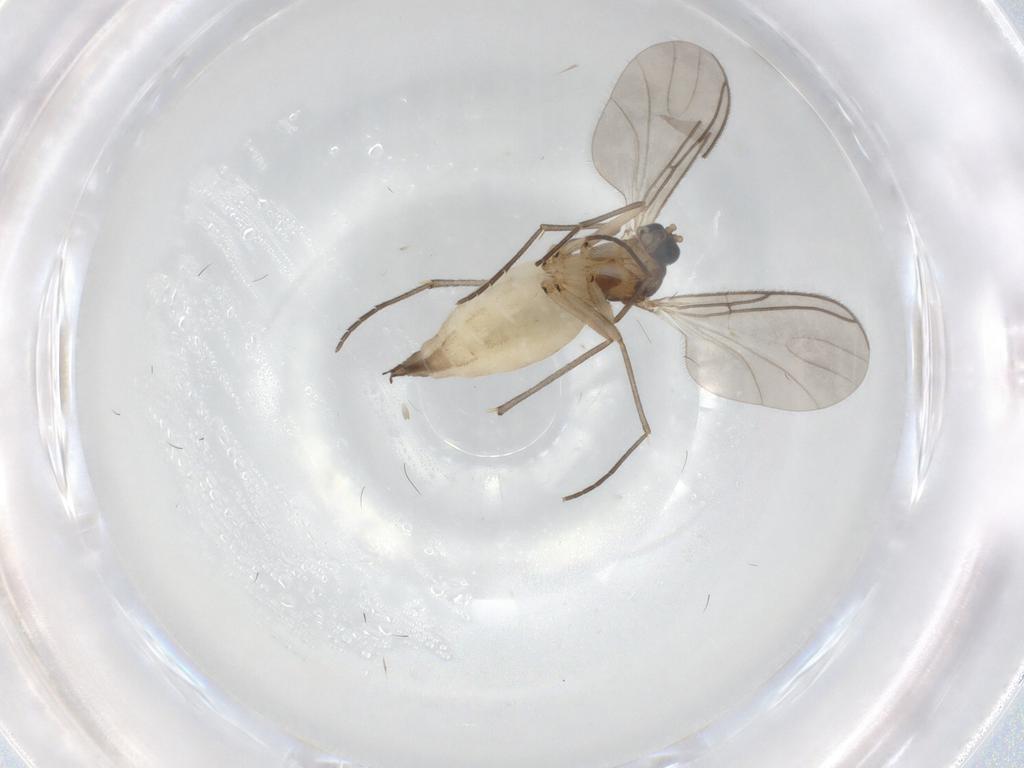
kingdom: Animalia
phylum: Arthropoda
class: Insecta
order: Diptera
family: Sciaridae
